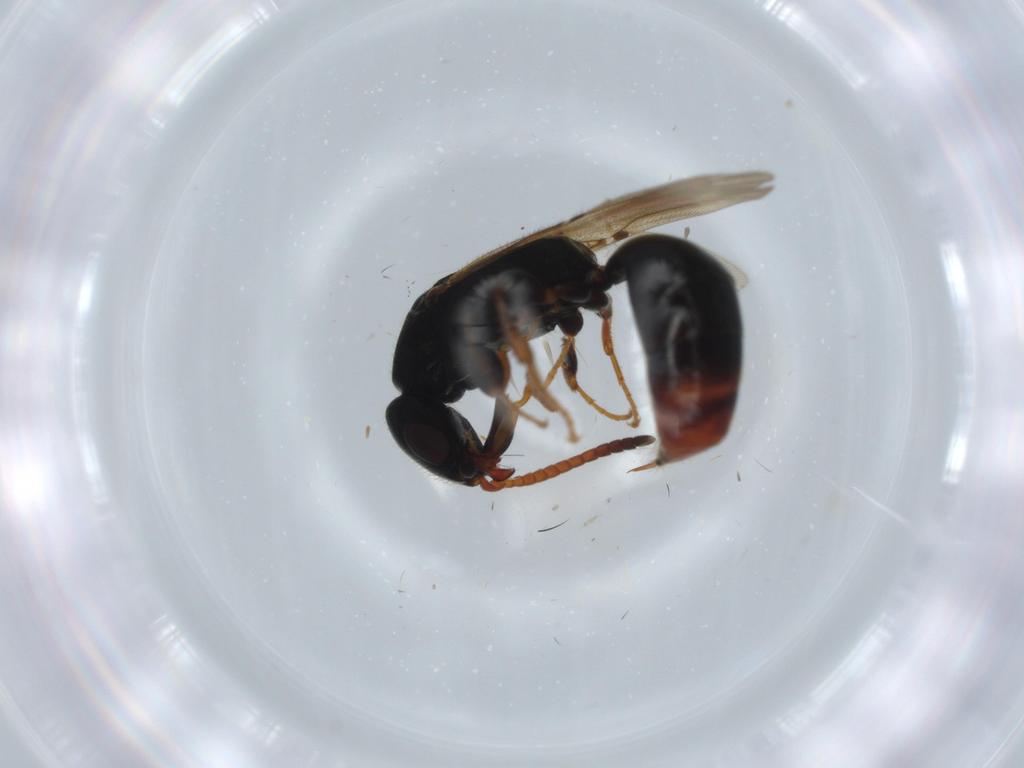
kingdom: Animalia
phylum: Arthropoda
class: Insecta
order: Hymenoptera
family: Bethylidae
